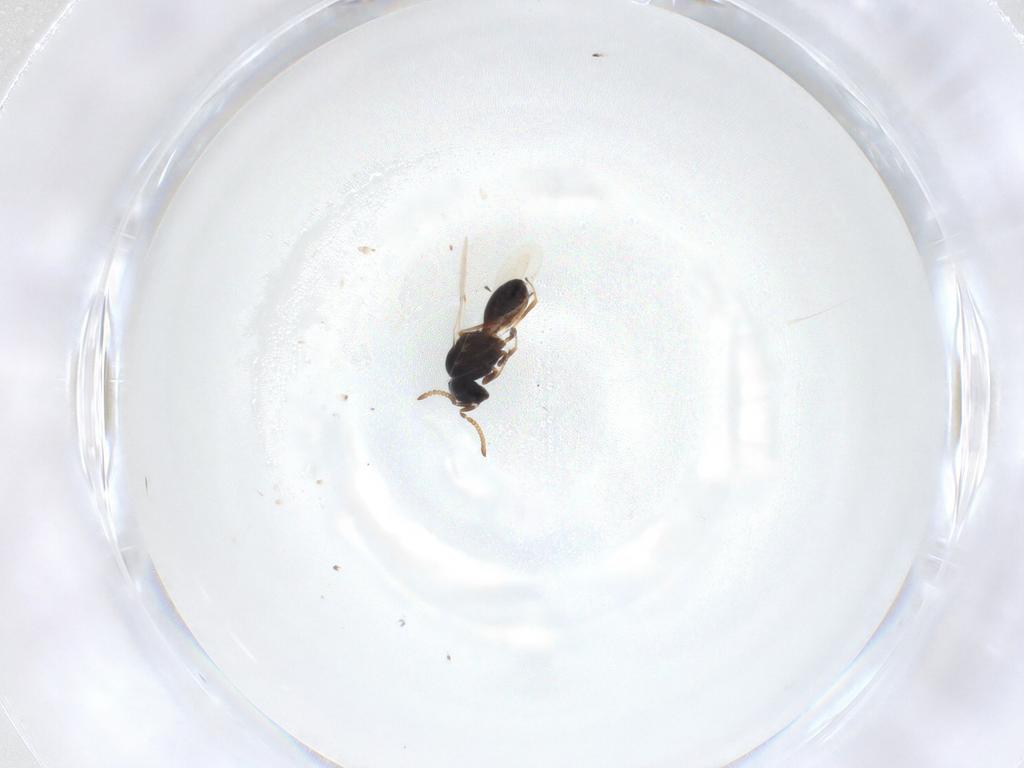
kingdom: Animalia
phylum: Arthropoda
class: Insecta
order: Hymenoptera
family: Scelionidae
